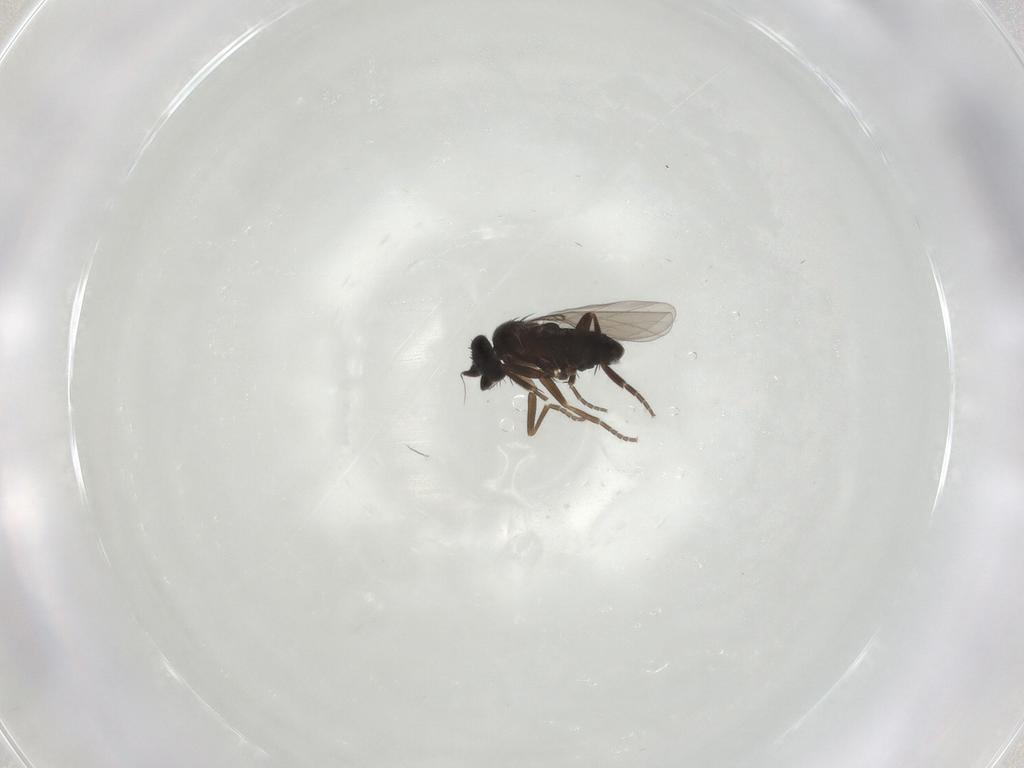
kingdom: Animalia
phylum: Arthropoda
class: Insecta
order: Diptera
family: Phoridae
